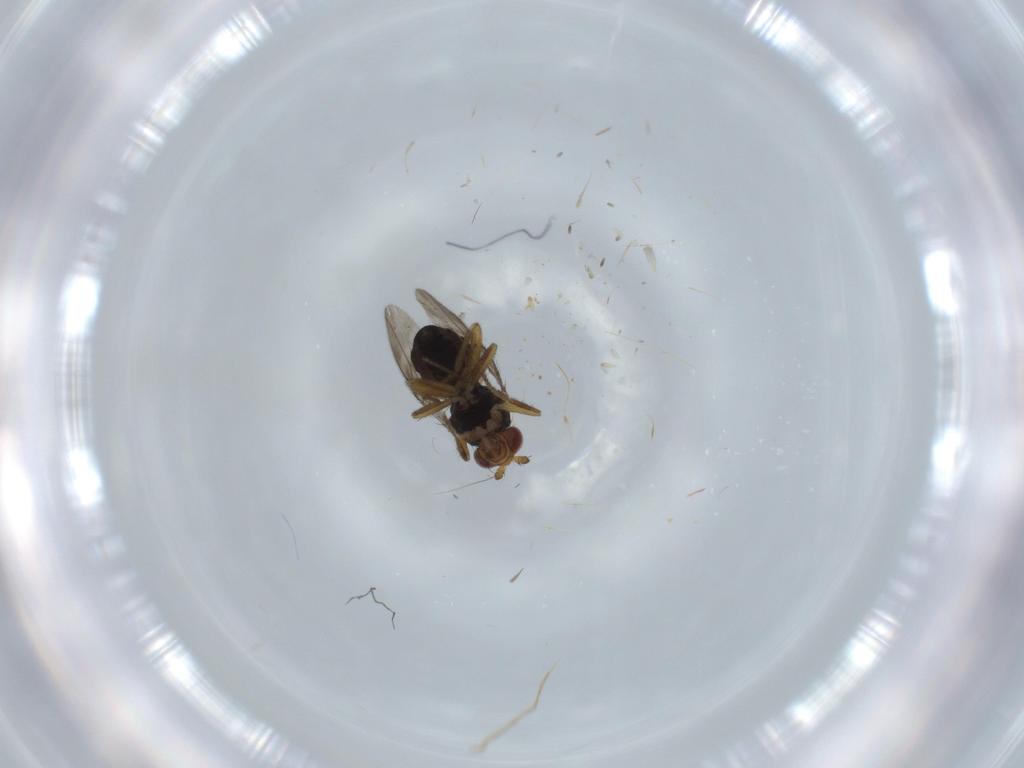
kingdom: Animalia
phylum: Arthropoda
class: Insecta
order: Diptera
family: Sphaeroceridae
